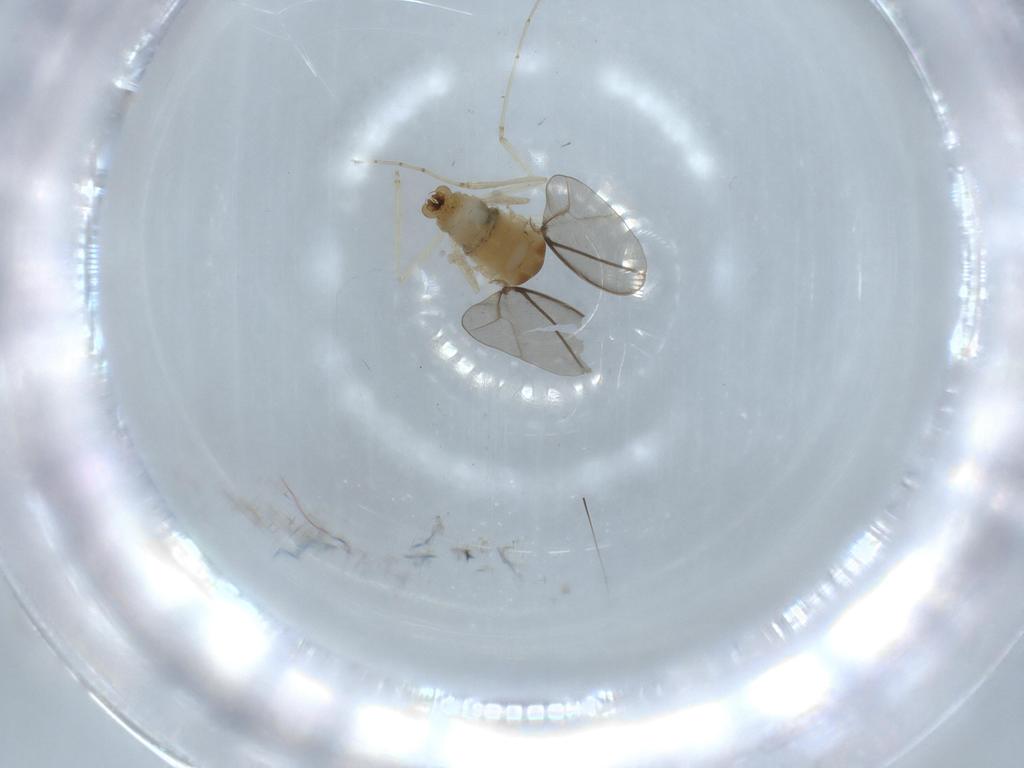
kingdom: Animalia
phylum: Arthropoda
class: Insecta
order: Diptera
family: Cecidomyiidae
